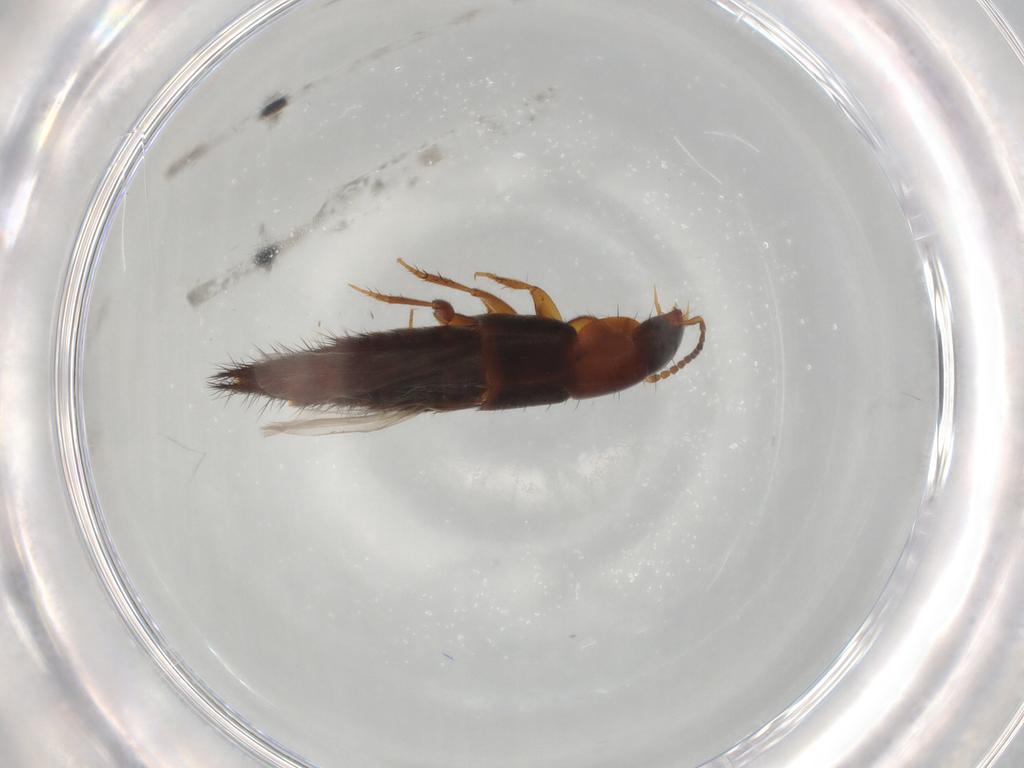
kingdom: Animalia
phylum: Arthropoda
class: Insecta
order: Coleoptera
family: Staphylinidae
